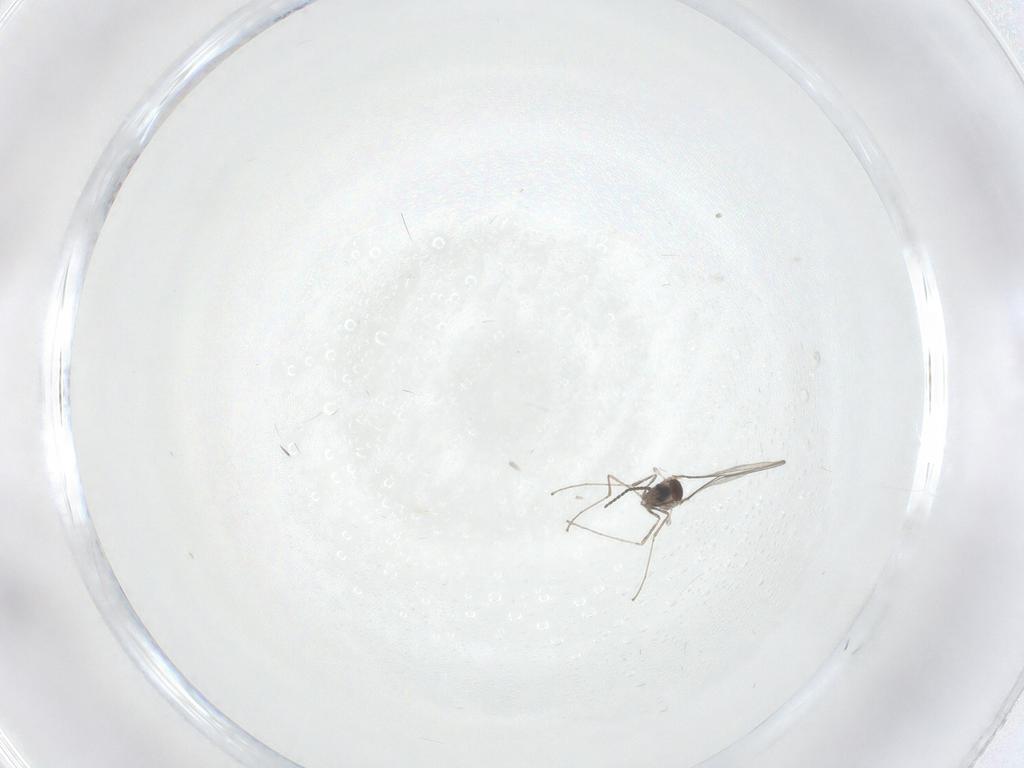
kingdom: Animalia
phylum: Arthropoda
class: Insecta
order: Diptera
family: Cecidomyiidae
